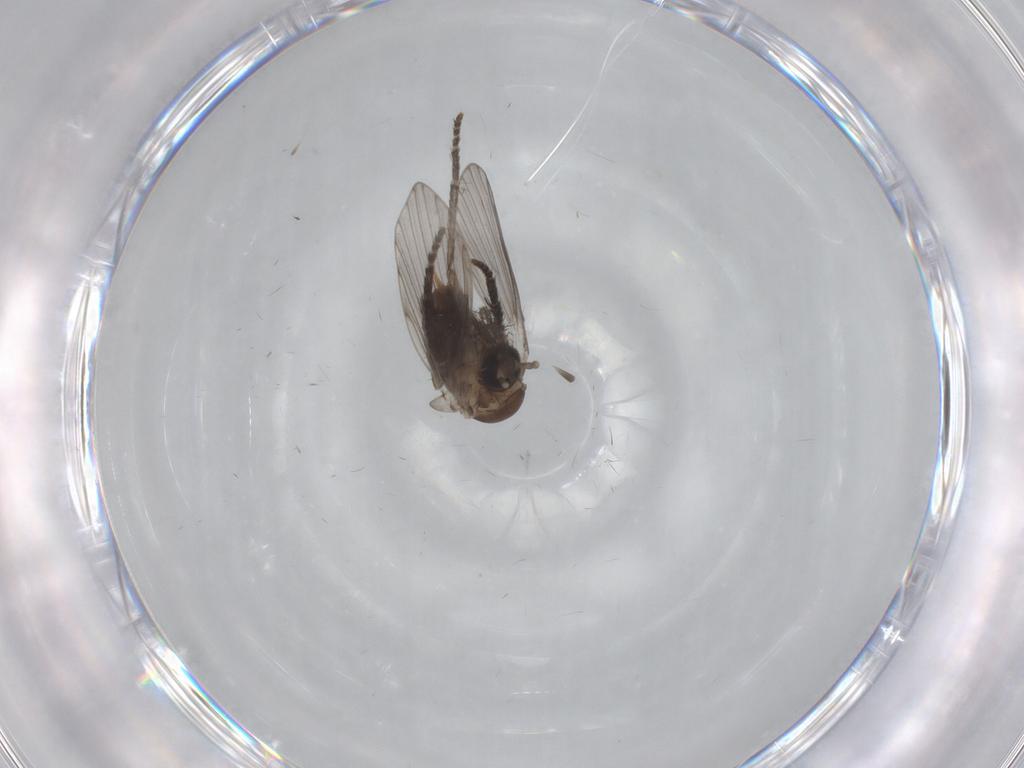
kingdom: Animalia
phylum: Arthropoda
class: Insecta
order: Diptera
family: Psychodidae
